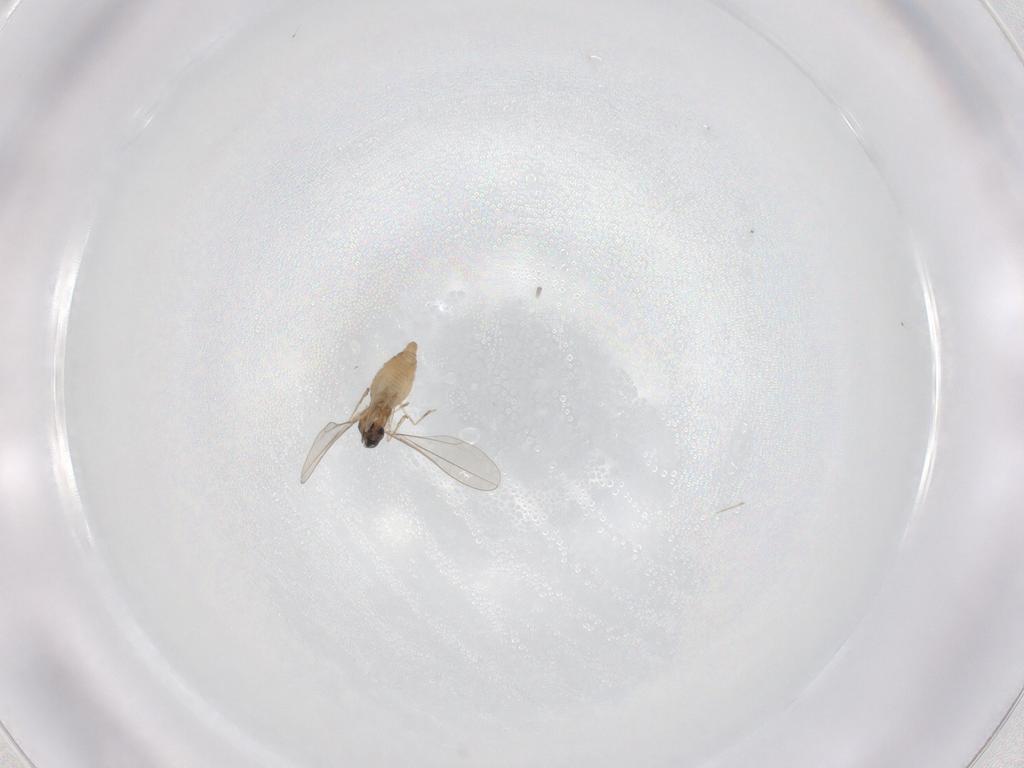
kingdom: Animalia
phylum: Arthropoda
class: Insecta
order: Diptera
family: Cecidomyiidae
